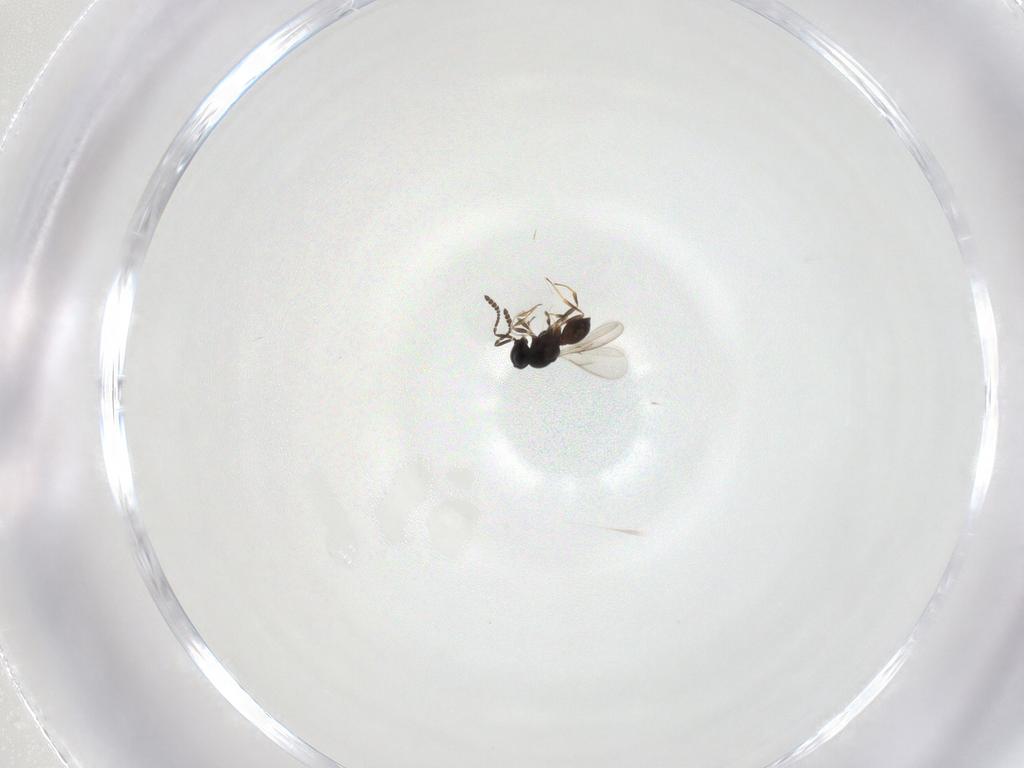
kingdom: Animalia
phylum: Arthropoda
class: Insecta
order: Hymenoptera
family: Scelionidae
